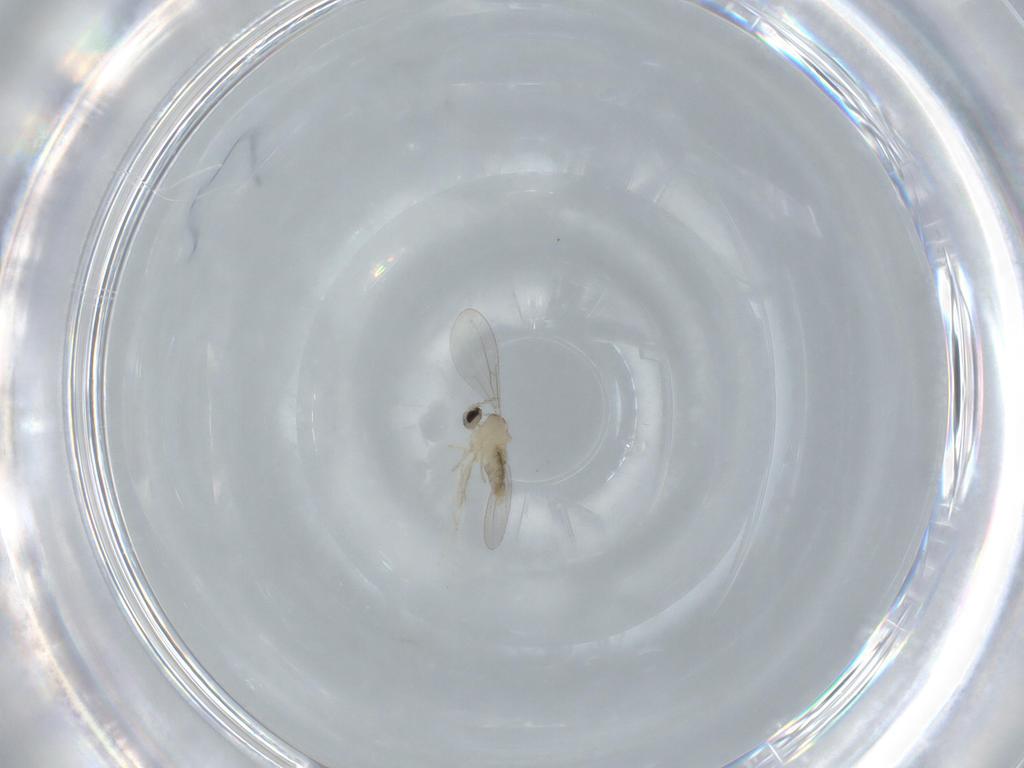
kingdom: Animalia
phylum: Arthropoda
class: Insecta
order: Diptera
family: Cecidomyiidae
